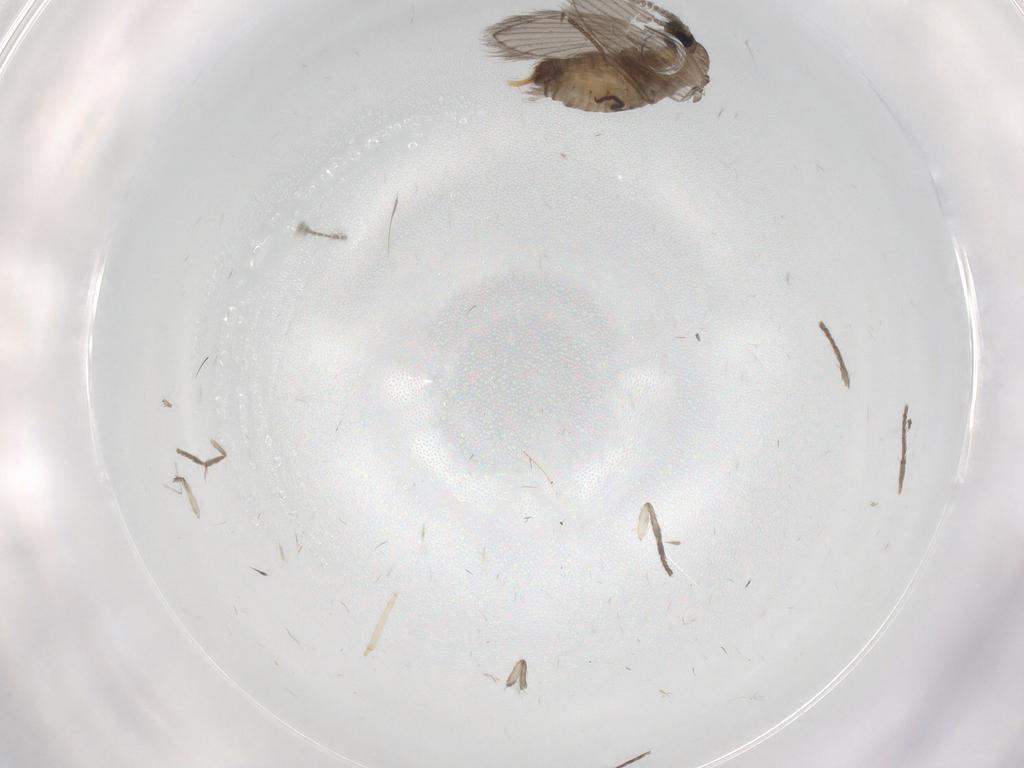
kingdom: Animalia
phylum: Arthropoda
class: Insecta
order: Diptera
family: Psychodidae
